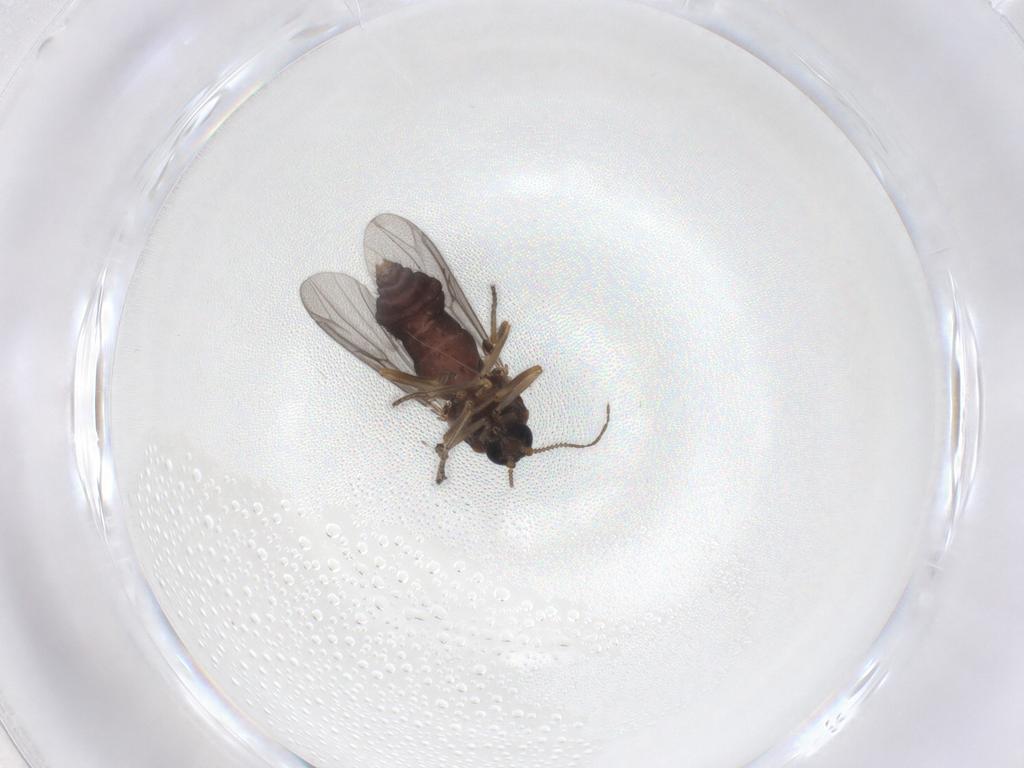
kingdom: Animalia
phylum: Arthropoda
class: Insecta
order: Diptera
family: Ceratopogonidae
